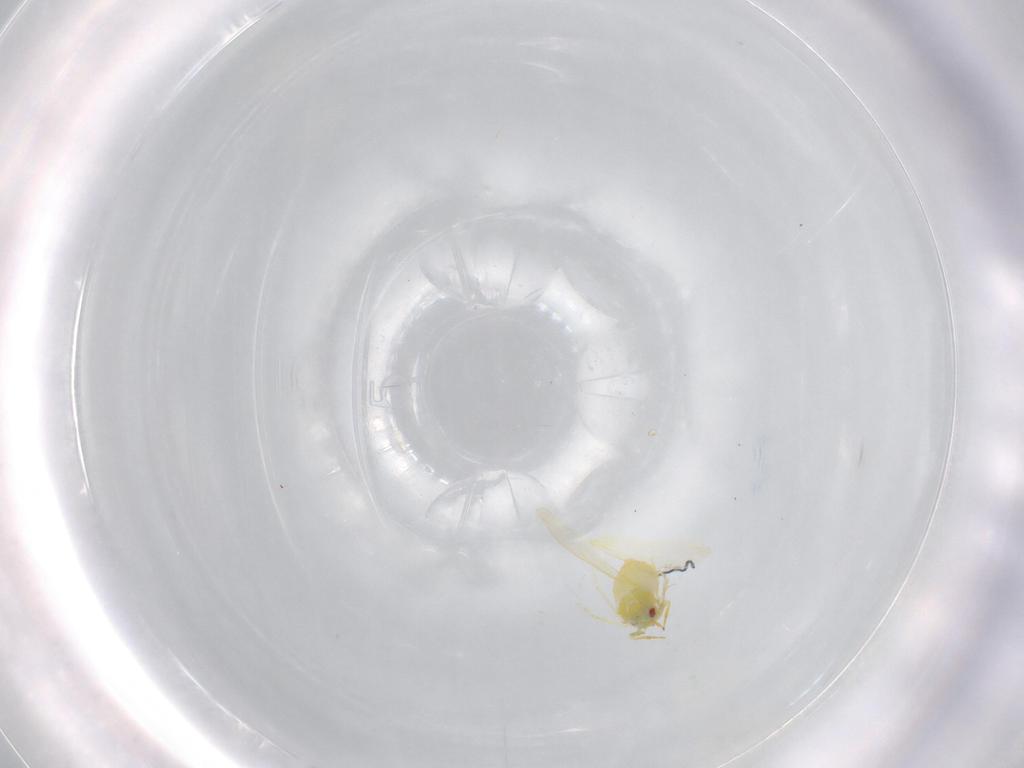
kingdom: Animalia
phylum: Arthropoda
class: Insecta
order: Hemiptera
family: Aleyrodidae
